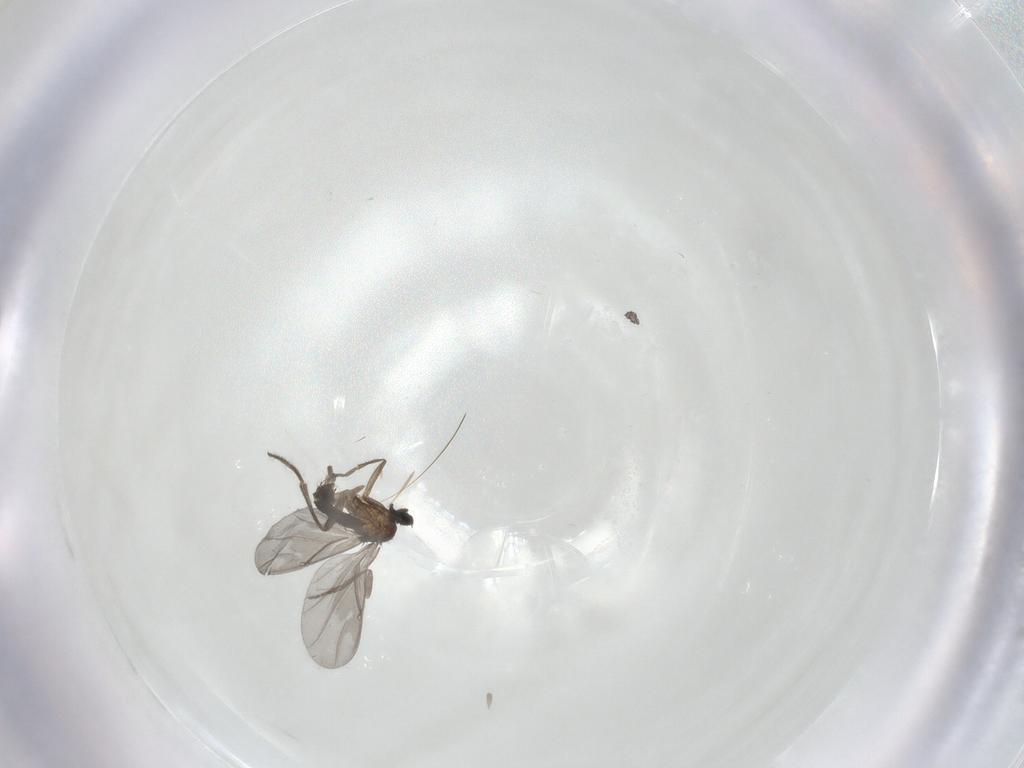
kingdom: Animalia
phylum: Arthropoda
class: Insecta
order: Diptera
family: Phoridae
